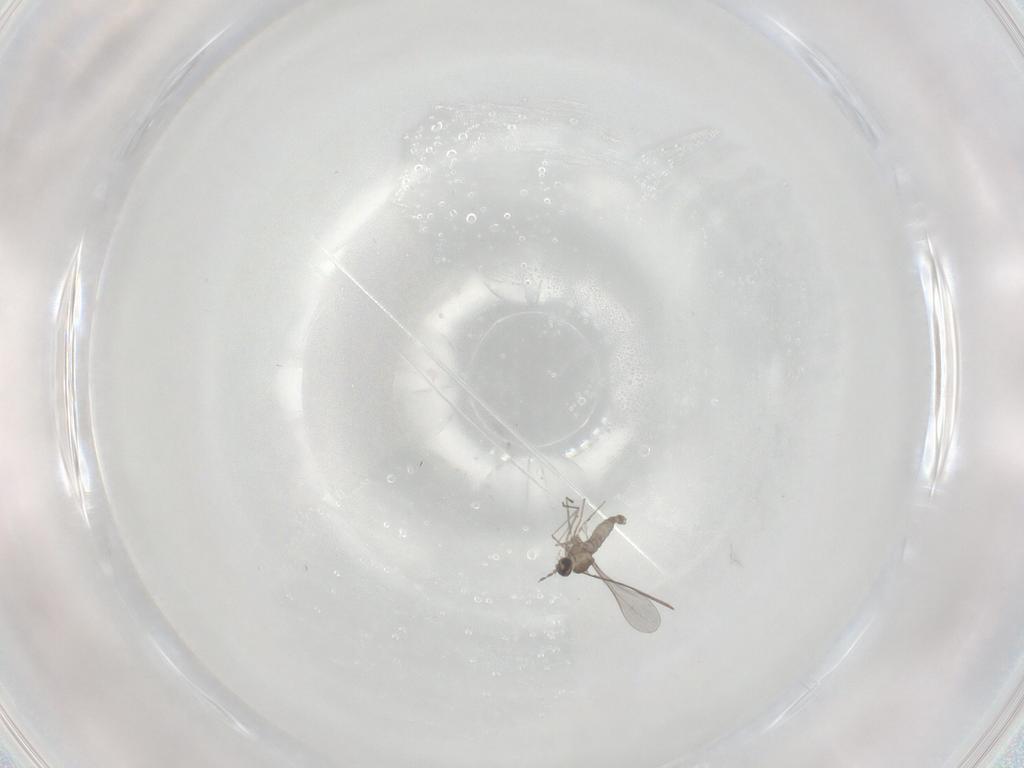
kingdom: Animalia
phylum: Arthropoda
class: Insecta
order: Diptera
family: Cecidomyiidae
